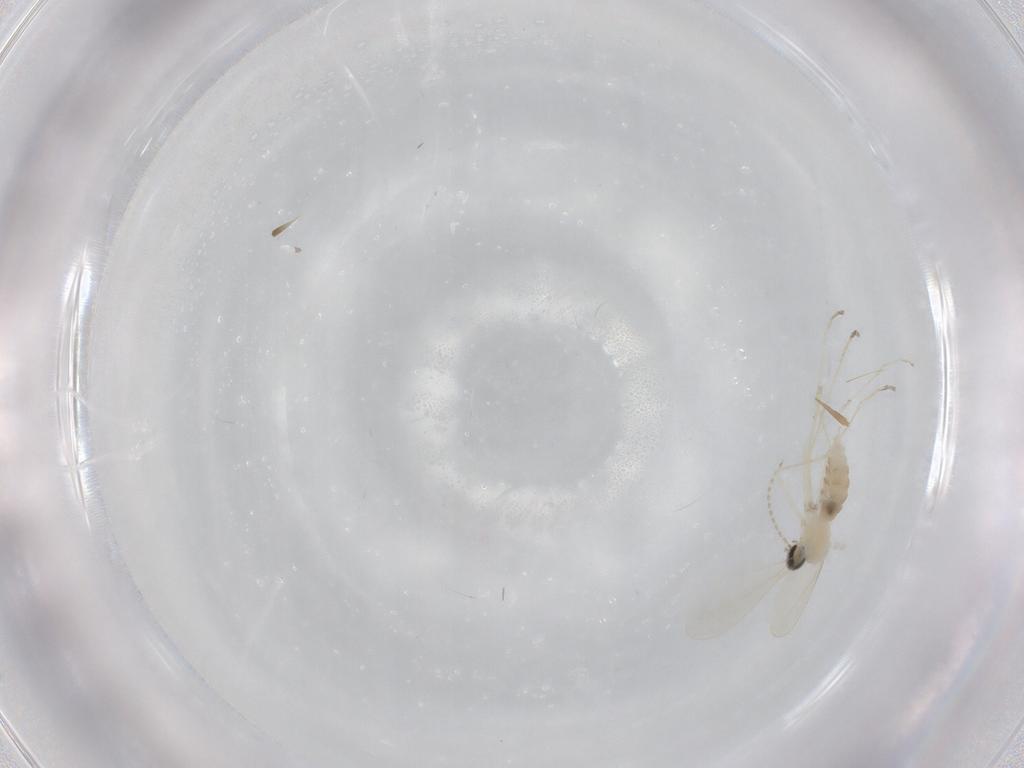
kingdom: Animalia
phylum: Arthropoda
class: Insecta
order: Diptera
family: Cecidomyiidae
